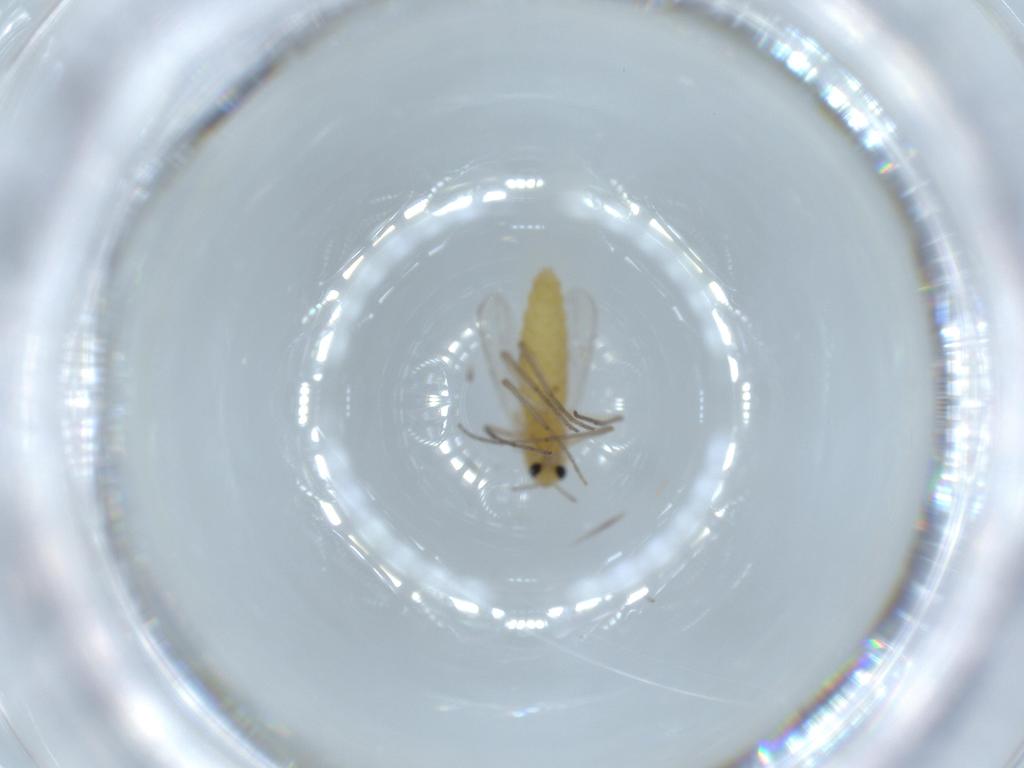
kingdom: Animalia
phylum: Arthropoda
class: Insecta
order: Diptera
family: Chironomidae
